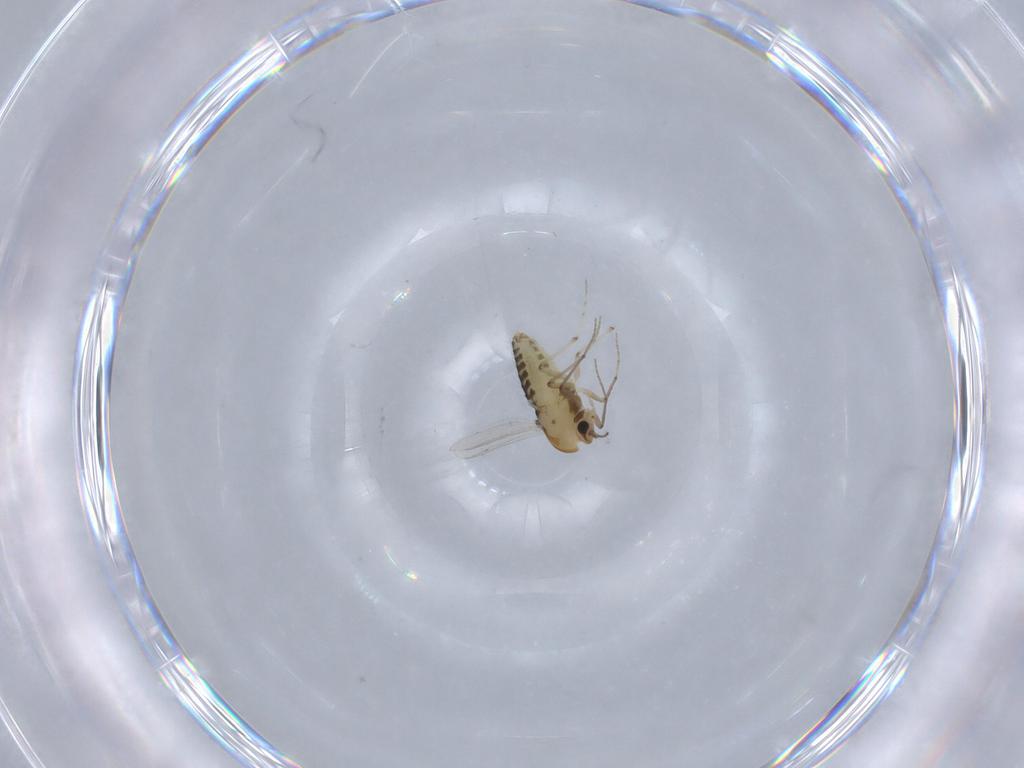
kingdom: Animalia
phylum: Arthropoda
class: Insecta
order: Diptera
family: Chironomidae
